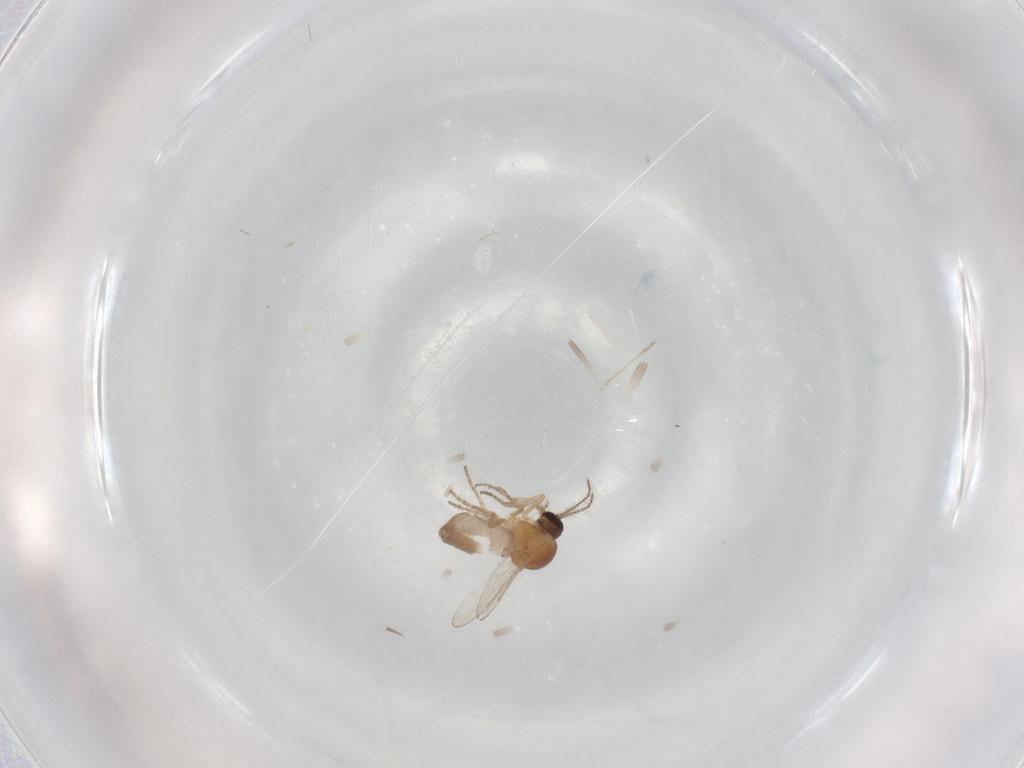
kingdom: Animalia
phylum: Arthropoda
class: Insecta
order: Diptera
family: Ceratopogonidae
